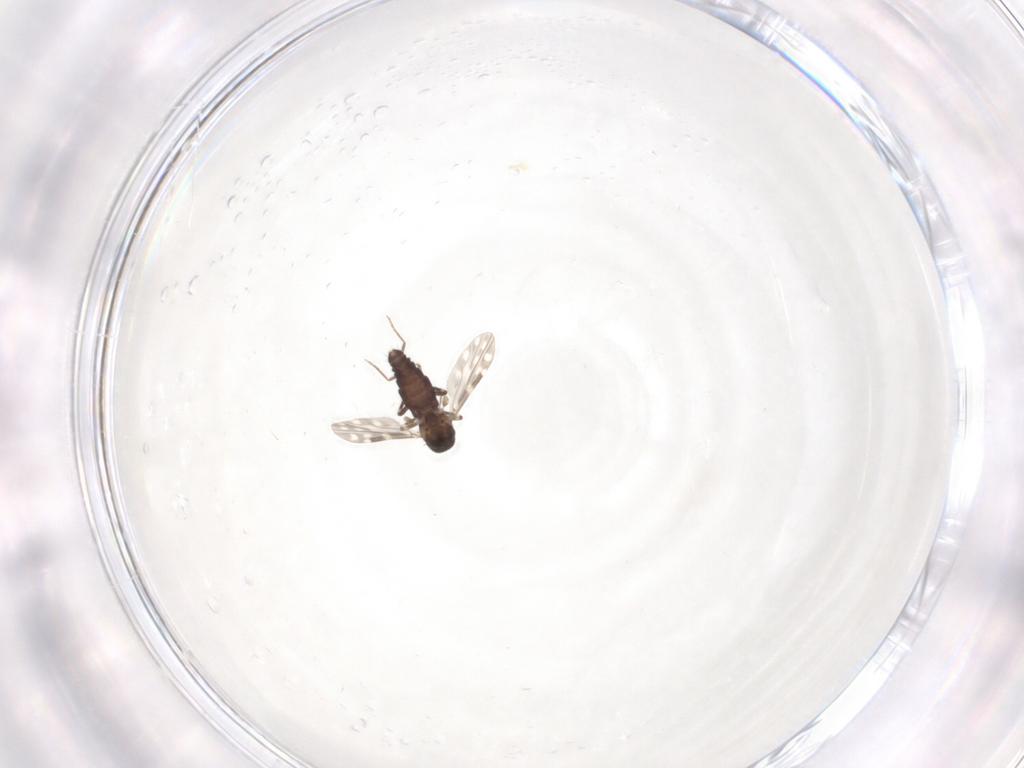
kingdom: Animalia
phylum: Arthropoda
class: Insecta
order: Diptera
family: Ceratopogonidae
